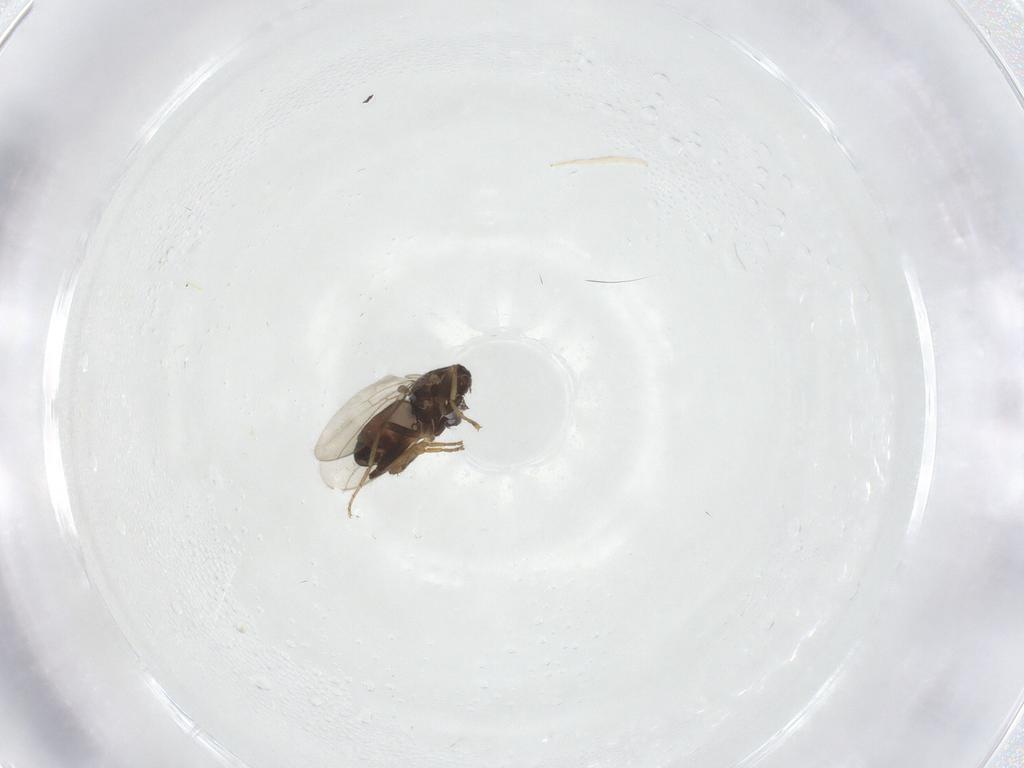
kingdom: Animalia
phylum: Arthropoda
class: Insecta
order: Diptera
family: Sphaeroceridae
